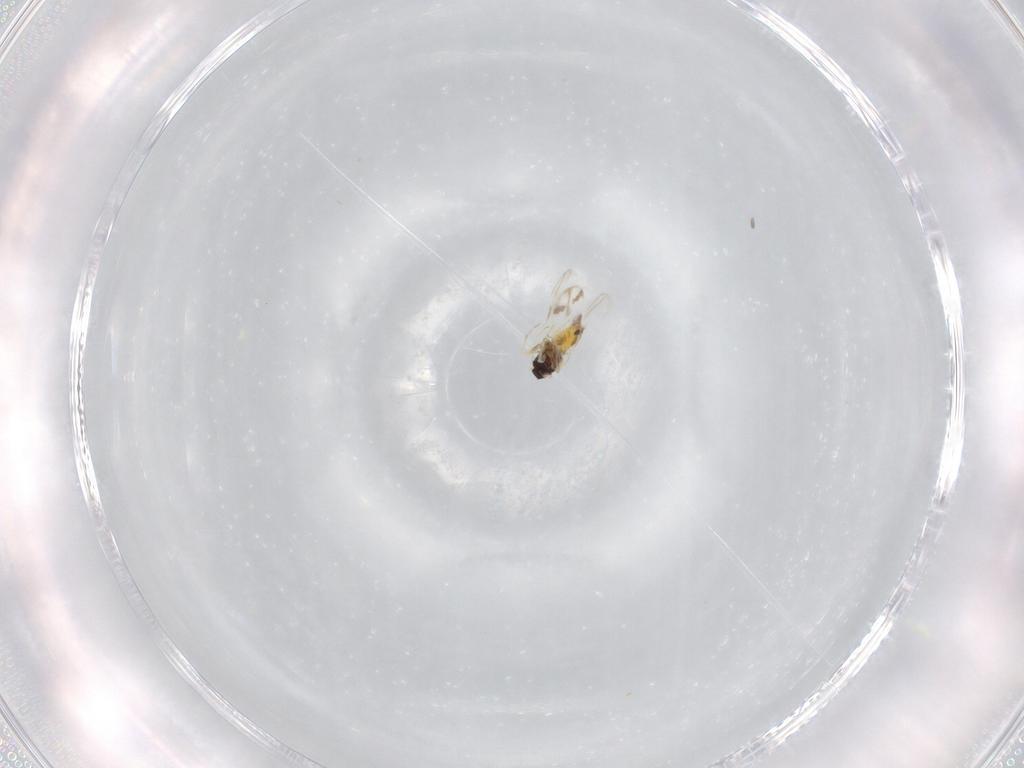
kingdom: Animalia
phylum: Arthropoda
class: Insecta
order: Hemiptera
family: Aleyrodidae
